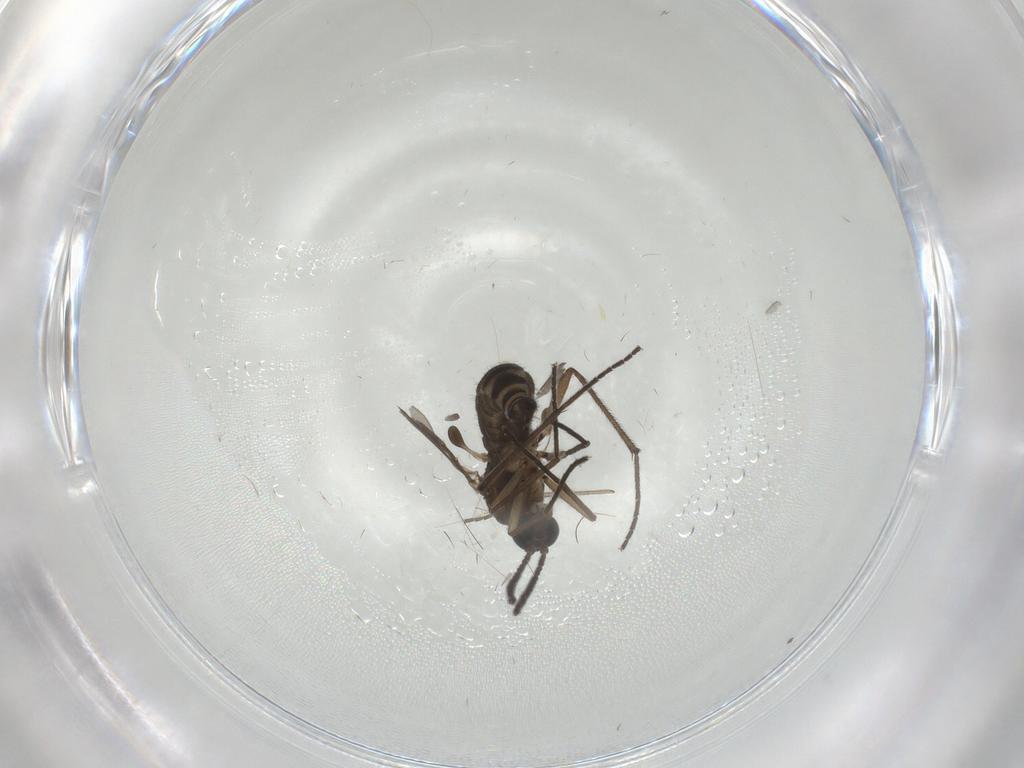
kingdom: Animalia
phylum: Arthropoda
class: Insecta
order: Diptera
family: Sciaridae
